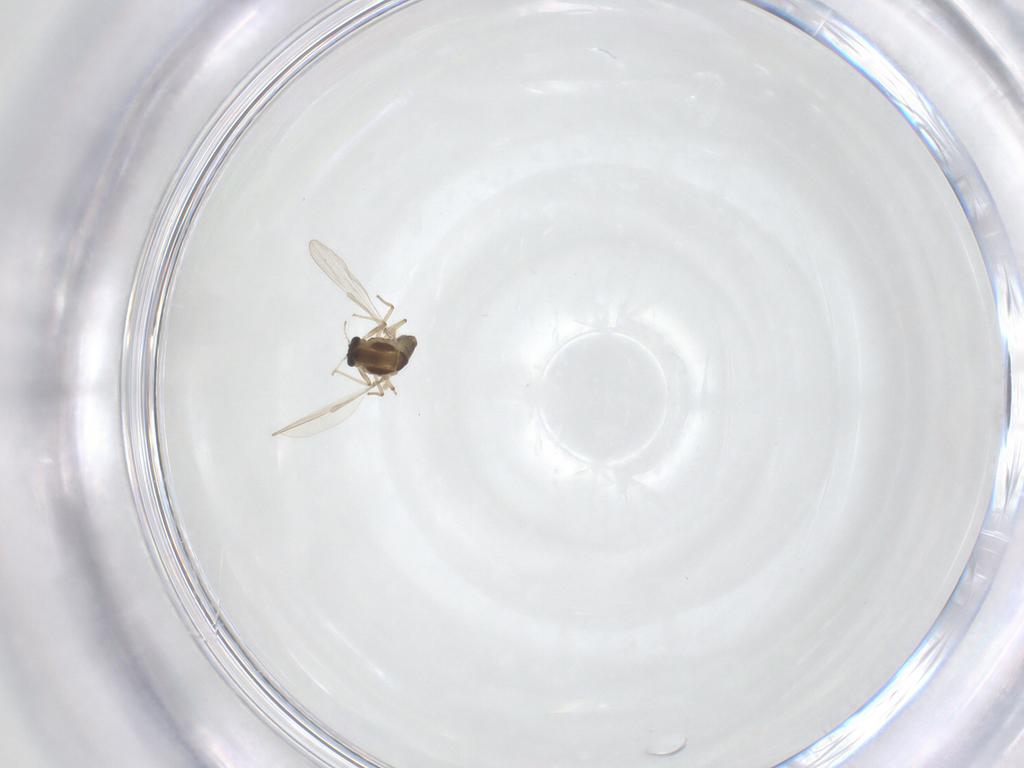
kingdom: Animalia
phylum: Arthropoda
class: Insecta
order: Diptera
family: Chironomidae
